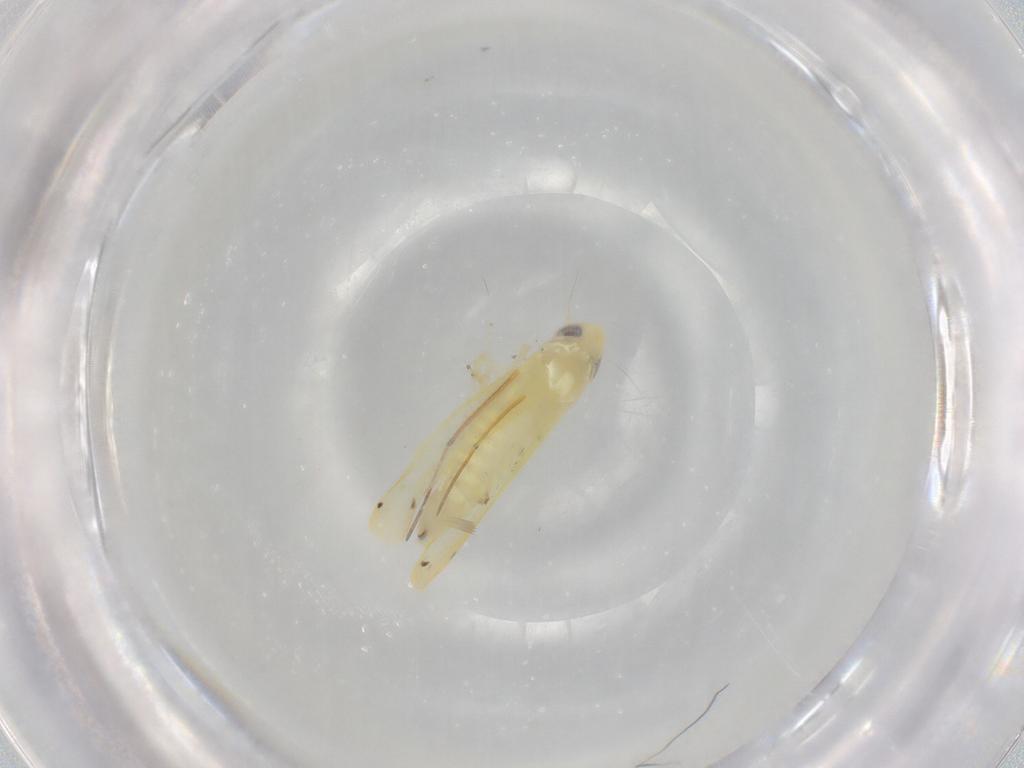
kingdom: Animalia
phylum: Arthropoda
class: Insecta
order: Hemiptera
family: Cicadellidae
